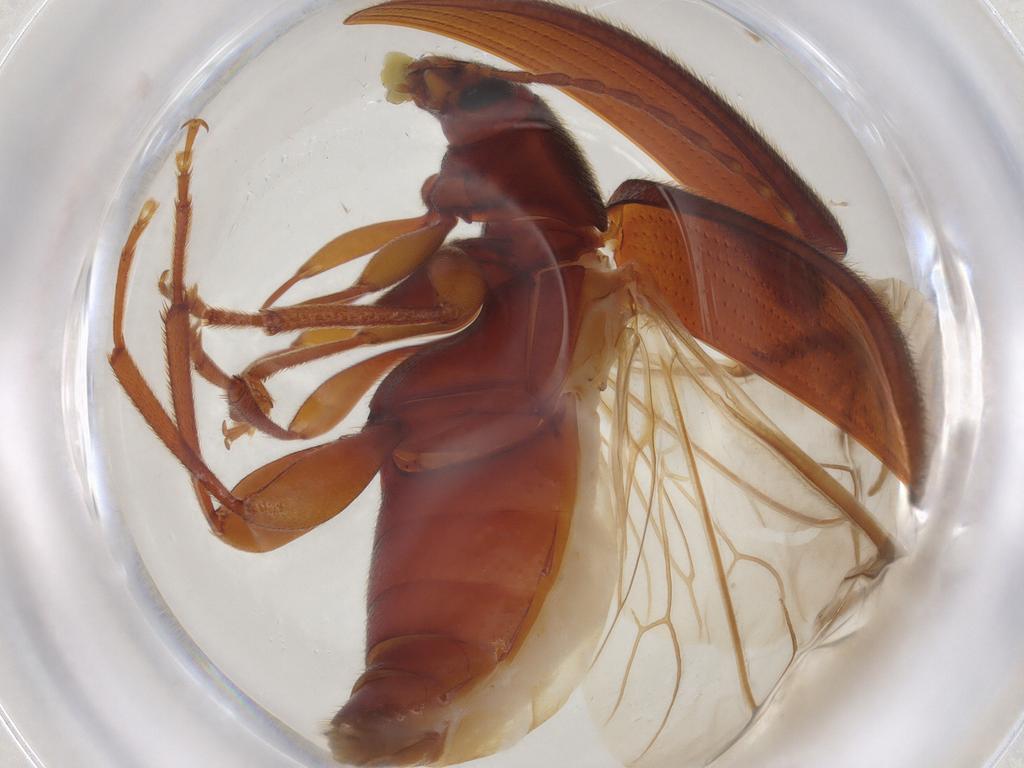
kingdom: Animalia
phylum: Arthropoda
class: Insecta
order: Coleoptera
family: Tenebrionidae
